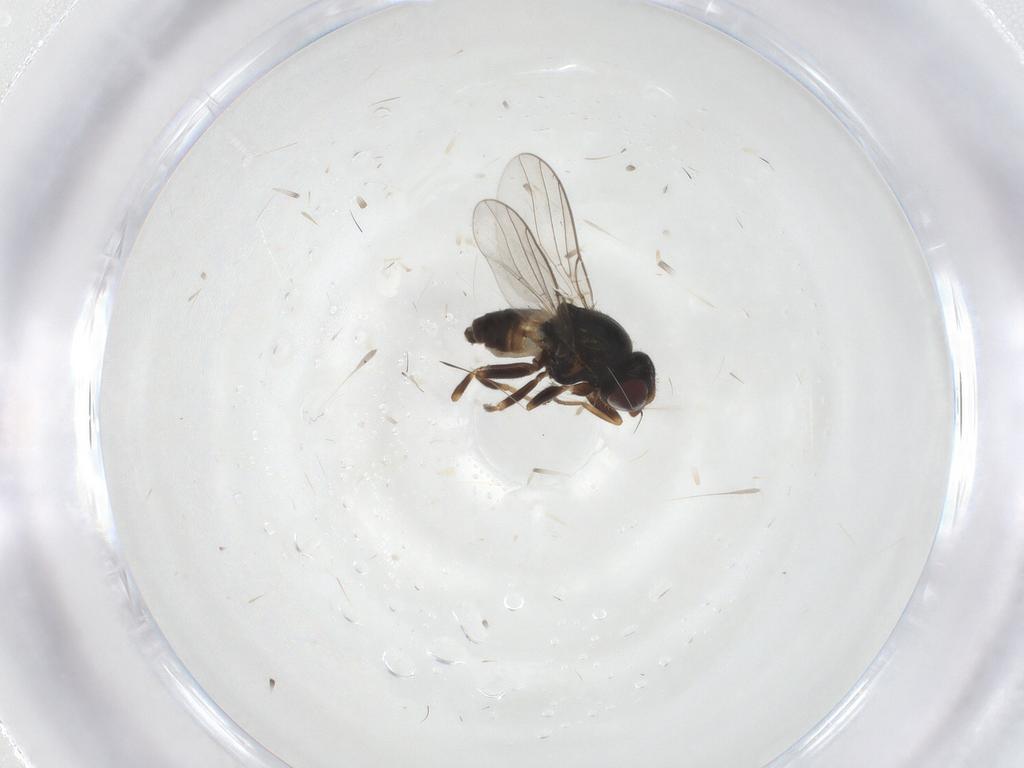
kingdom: Animalia
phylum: Arthropoda
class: Insecta
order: Diptera
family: Chloropidae
